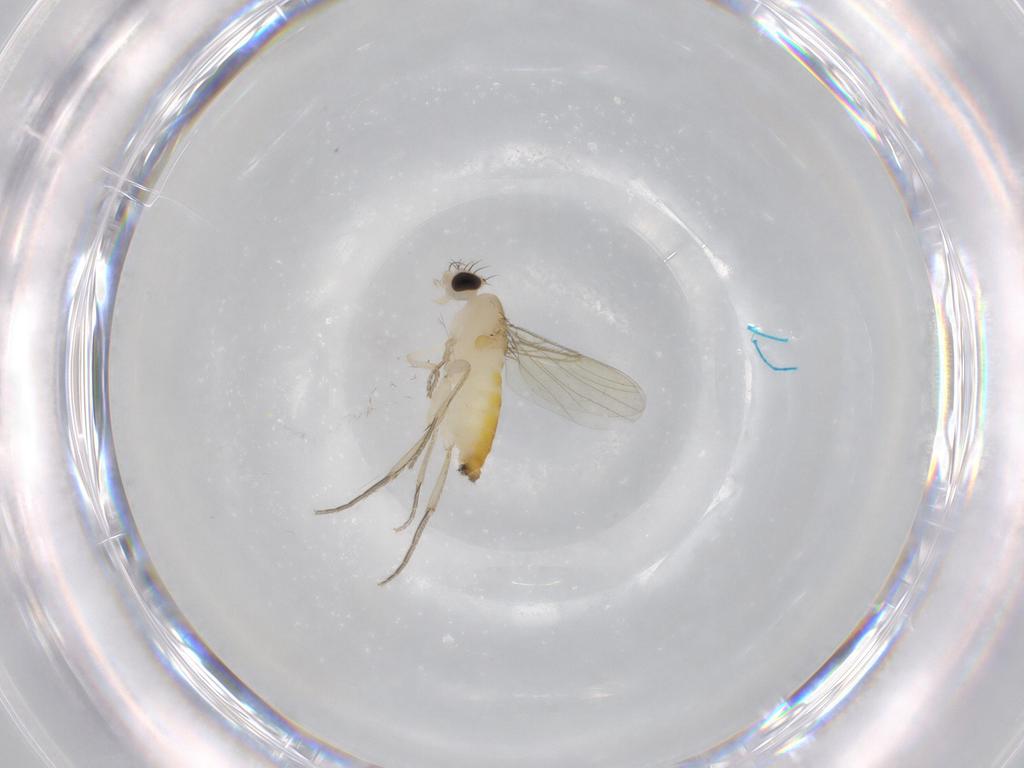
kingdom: Animalia
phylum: Arthropoda
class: Insecta
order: Diptera
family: Phoridae
